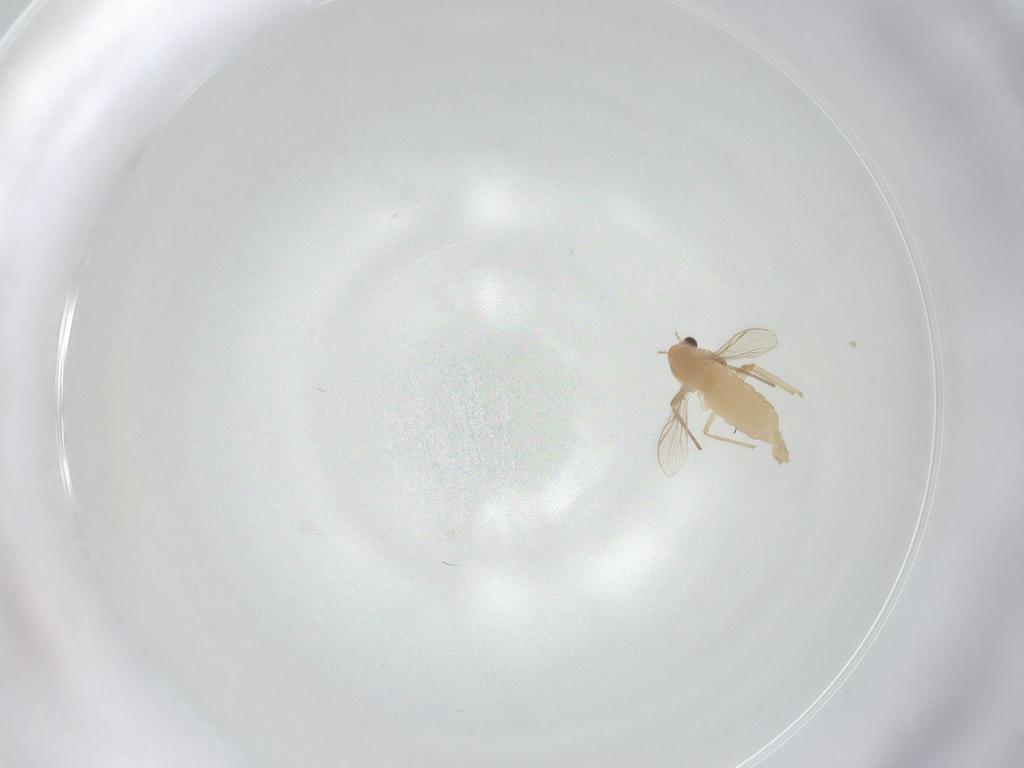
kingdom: Animalia
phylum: Arthropoda
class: Insecta
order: Diptera
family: Chironomidae
